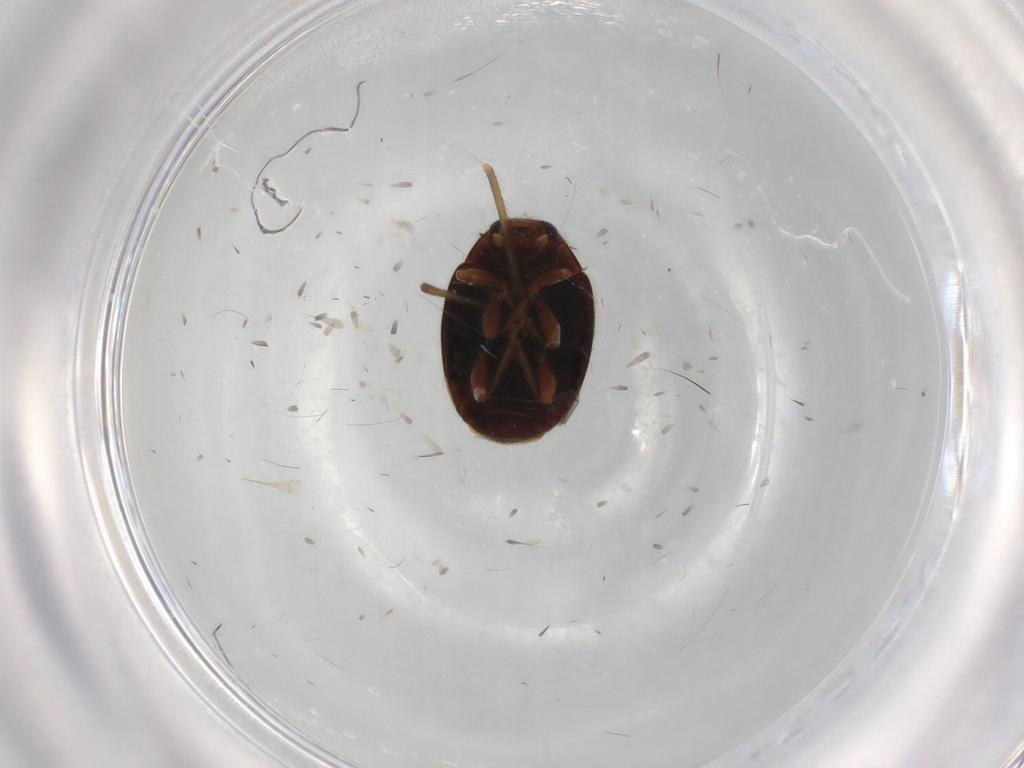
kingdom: Animalia
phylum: Arthropoda
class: Insecta
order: Coleoptera
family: Coccinellidae
